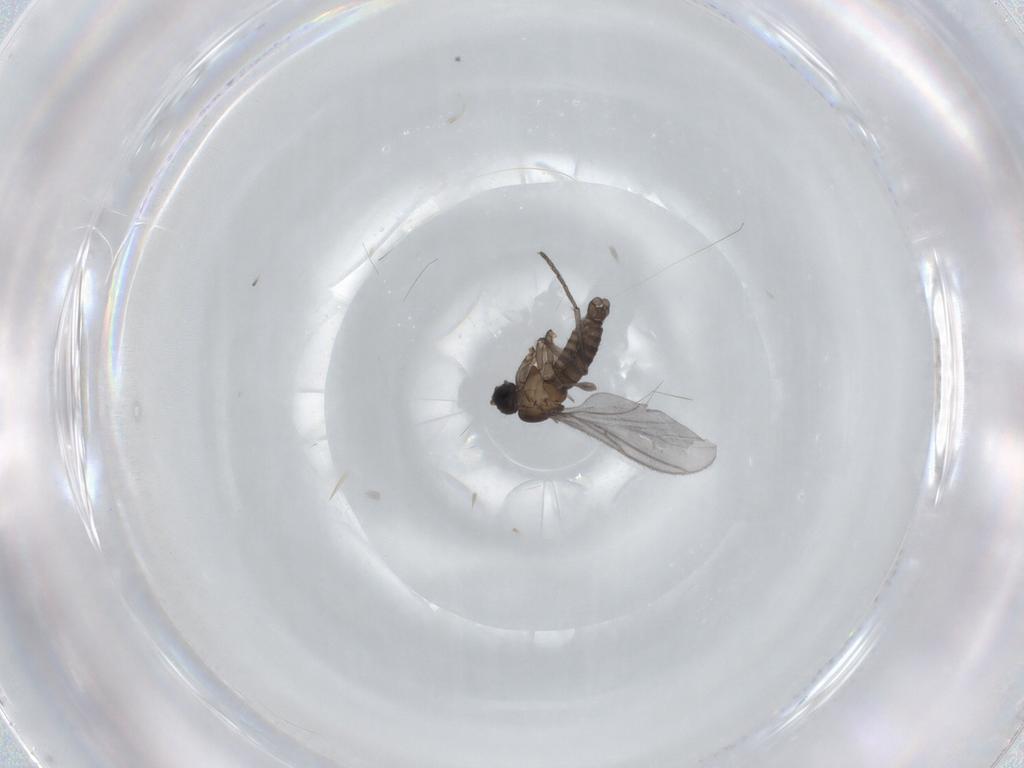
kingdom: Animalia
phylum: Arthropoda
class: Insecta
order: Diptera
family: Sciaridae
